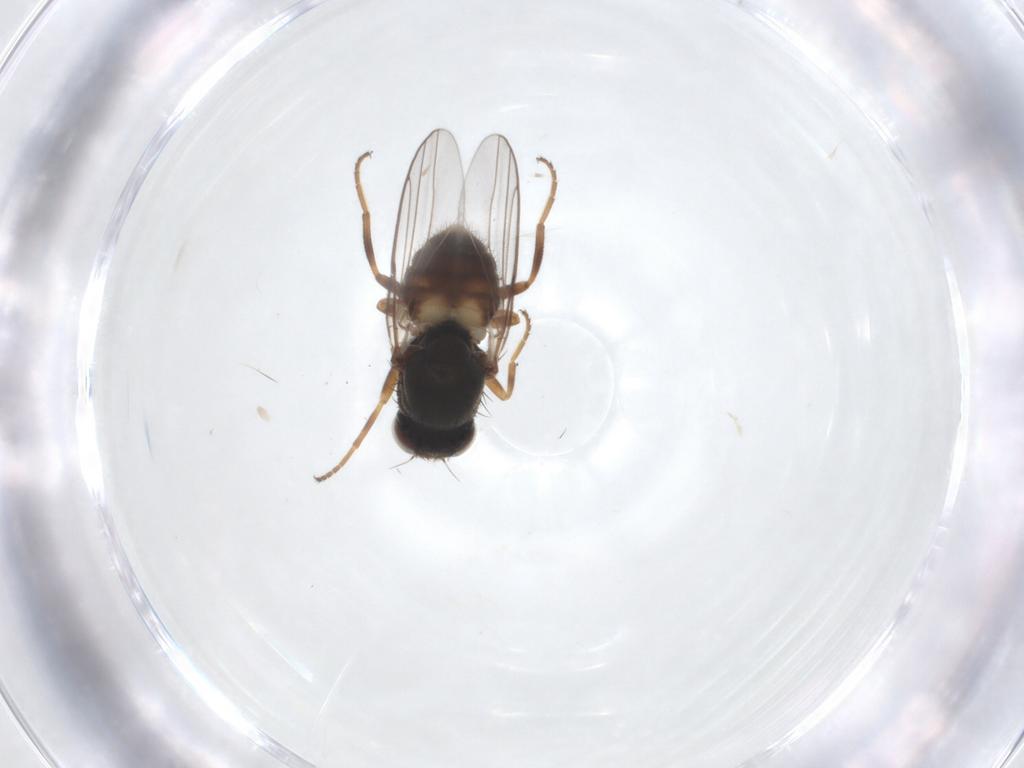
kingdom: Animalia
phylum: Arthropoda
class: Insecta
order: Diptera
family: Chloropidae
